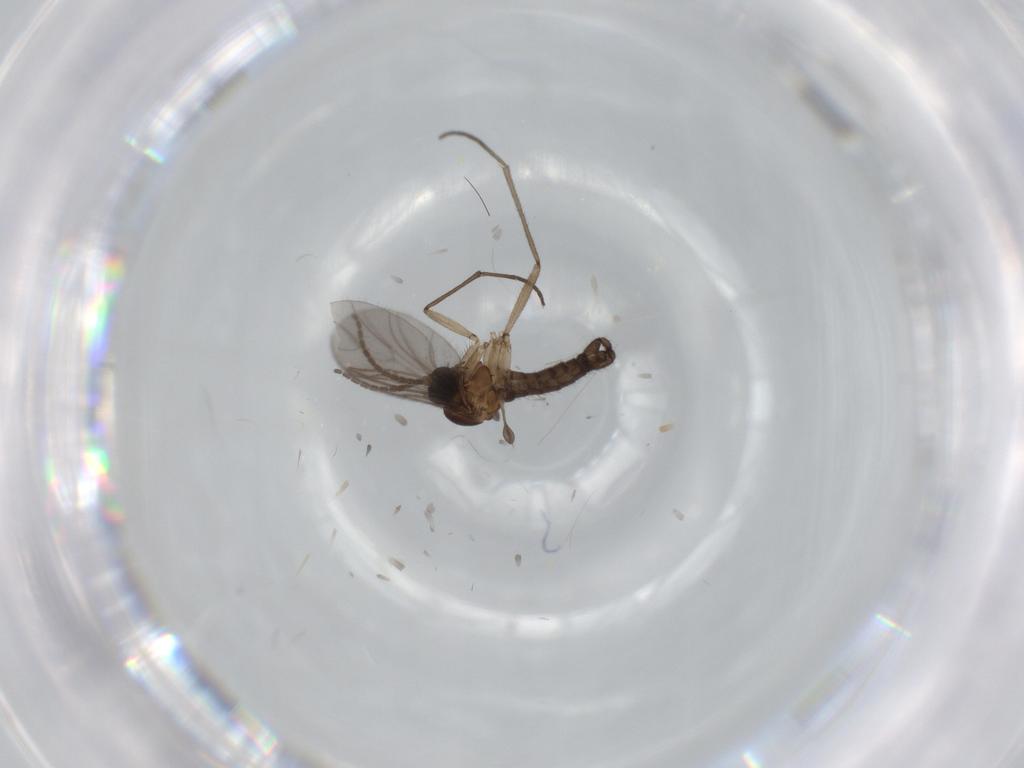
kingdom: Animalia
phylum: Arthropoda
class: Insecta
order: Diptera
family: Sciaridae
